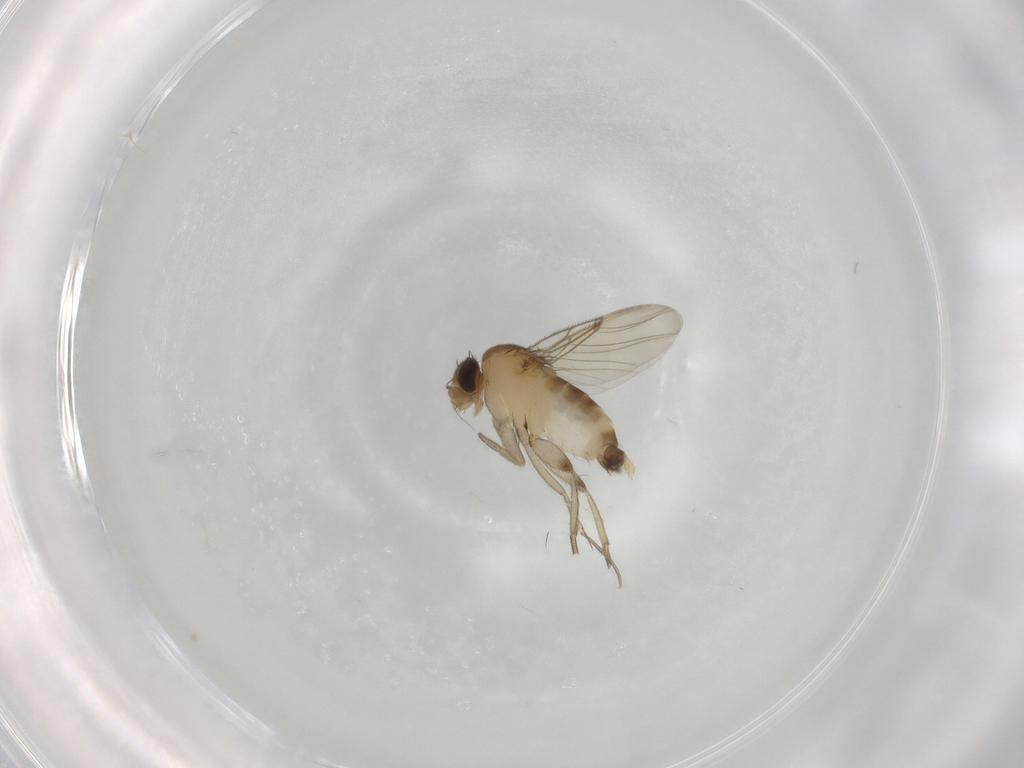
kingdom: Animalia
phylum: Arthropoda
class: Insecta
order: Diptera
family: Phoridae
